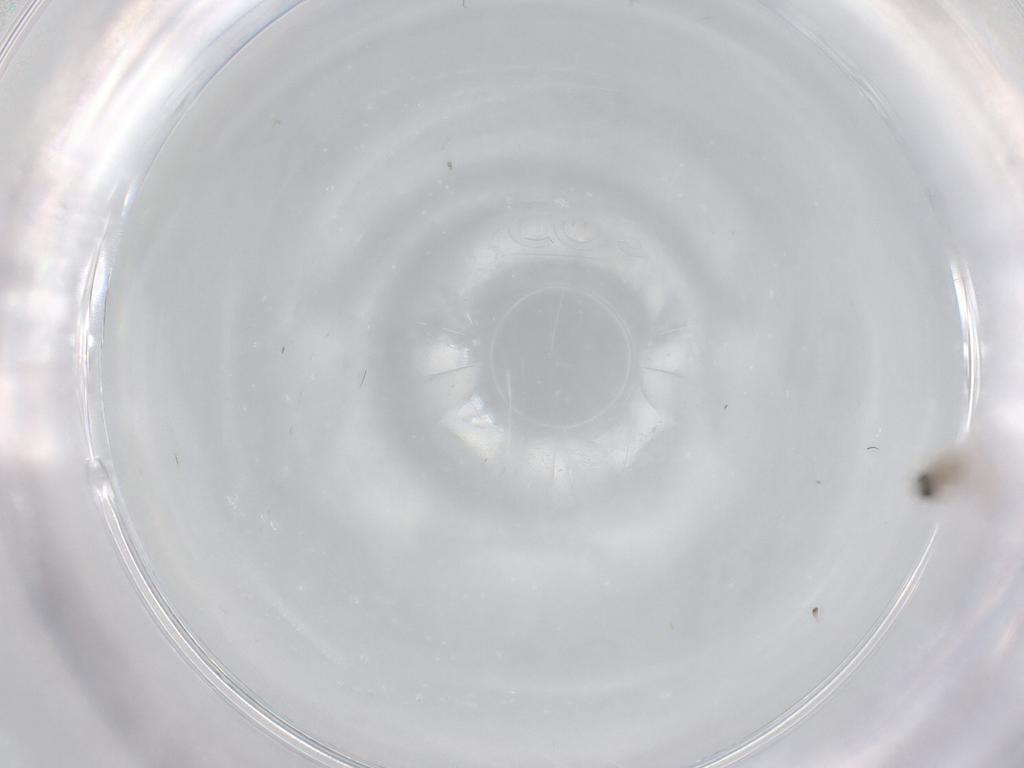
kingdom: Animalia
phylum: Arthropoda
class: Insecta
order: Diptera
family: Chironomidae
